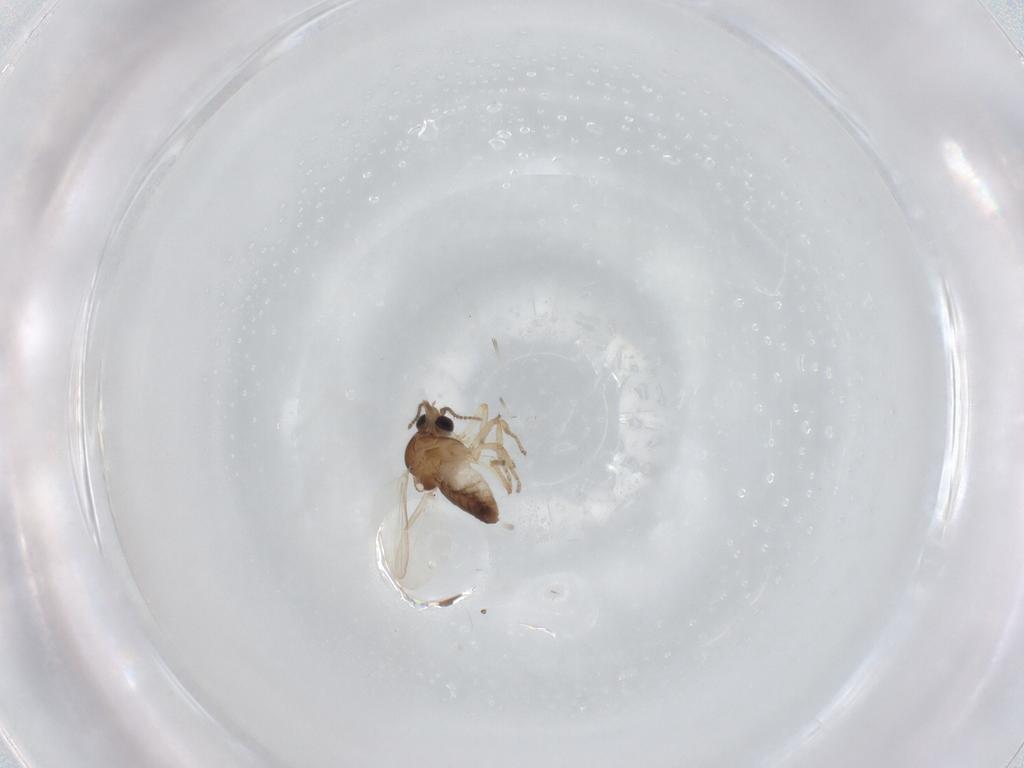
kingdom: Animalia
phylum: Arthropoda
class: Insecta
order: Diptera
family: Ceratopogonidae
